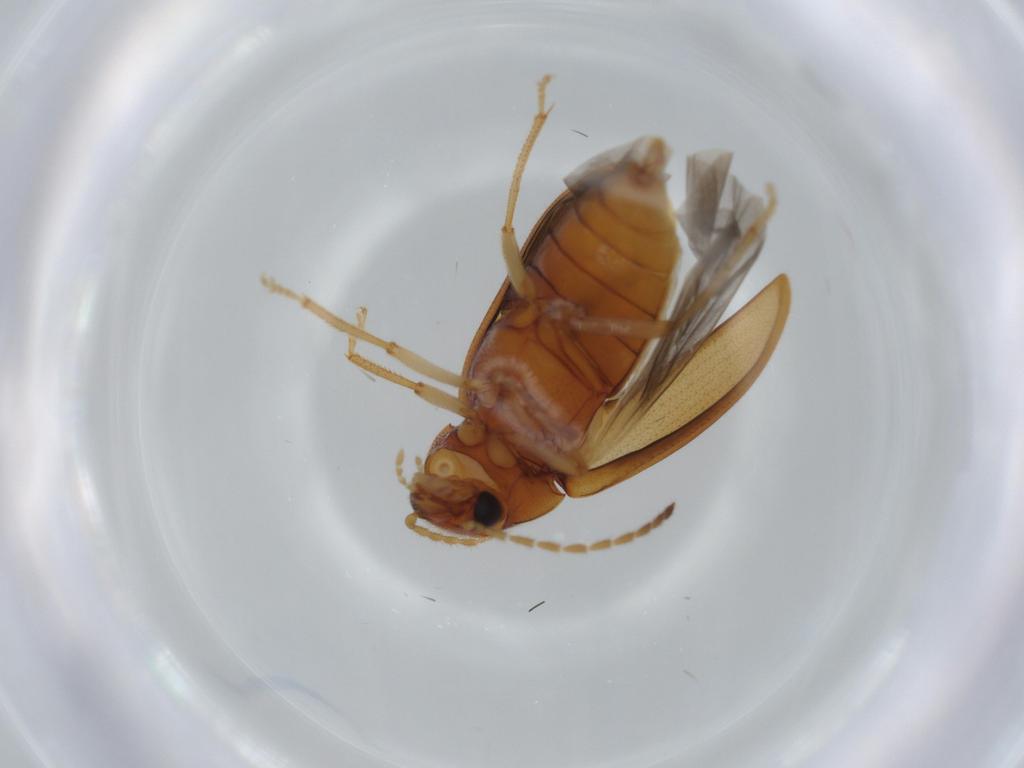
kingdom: Animalia
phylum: Arthropoda
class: Insecta
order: Coleoptera
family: Ptilodactylidae
